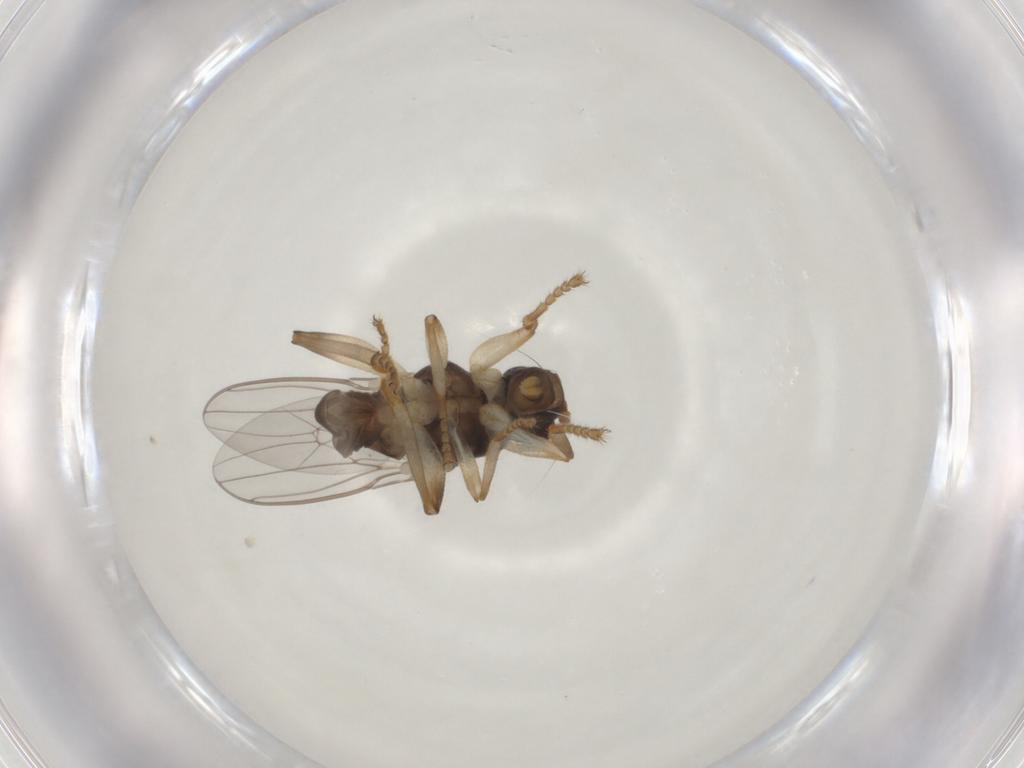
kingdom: Animalia
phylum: Arthropoda
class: Insecta
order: Diptera
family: Sphaeroceridae
